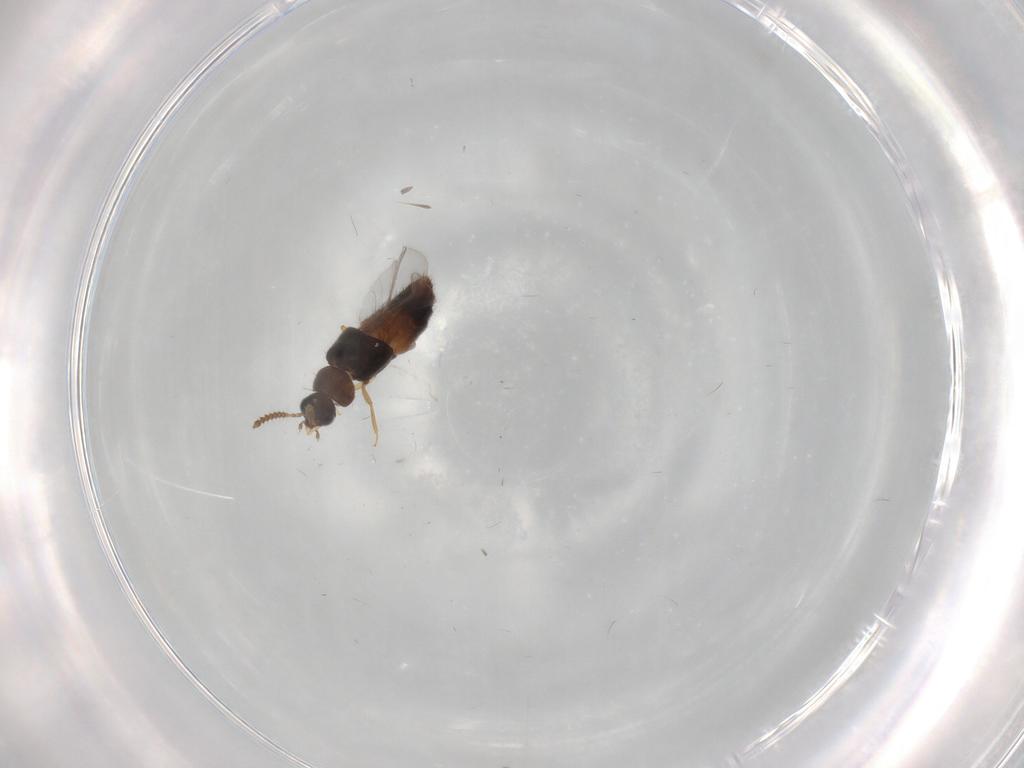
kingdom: Animalia
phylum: Arthropoda
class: Insecta
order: Coleoptera
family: Staphylinidae
